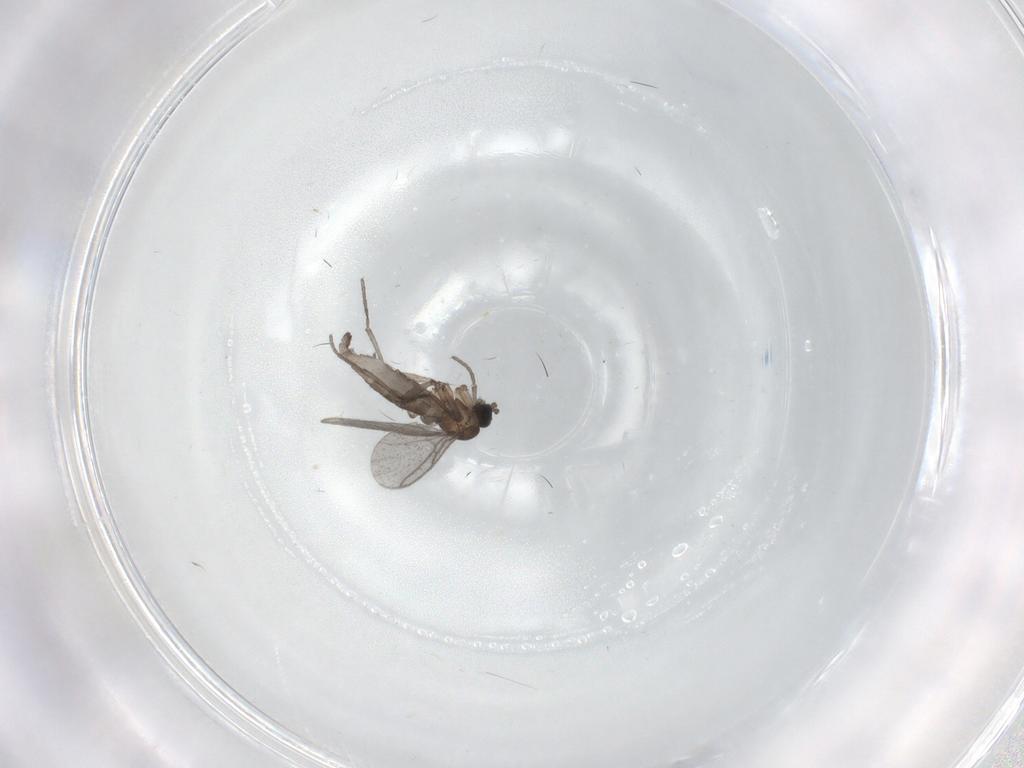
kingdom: Animalia
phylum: Arthropoda
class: Insecta
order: Diptera
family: Sciaridae
